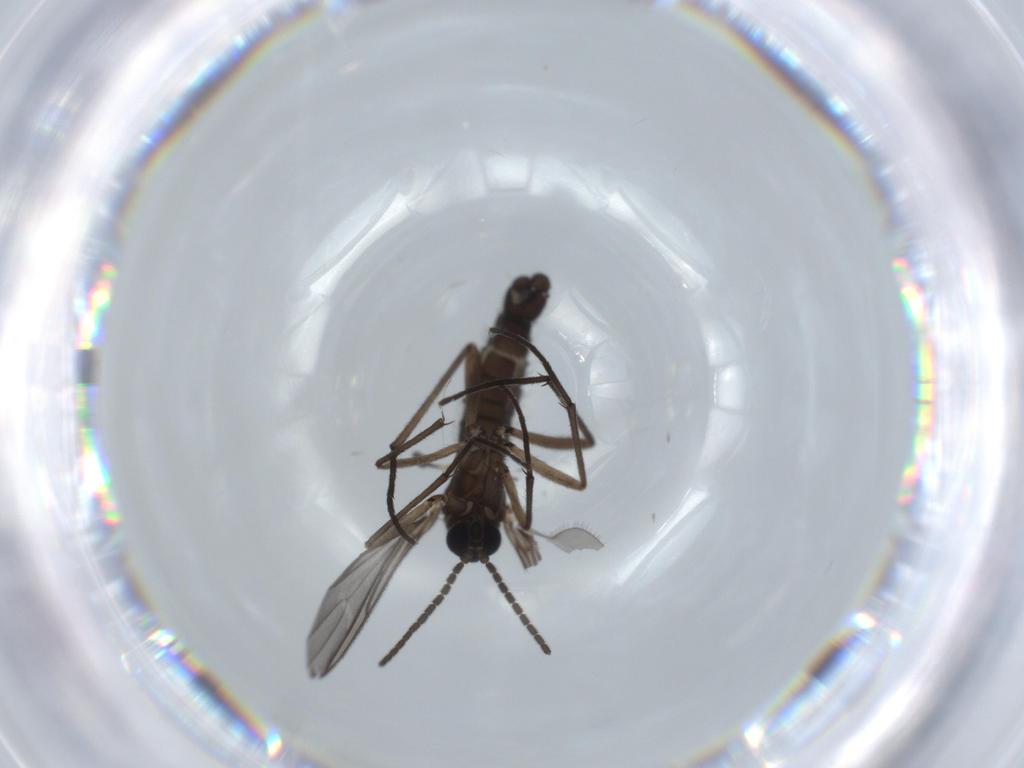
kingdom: Animalia
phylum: Arthropoda
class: Insecta
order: Diptera
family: Sciaridae
